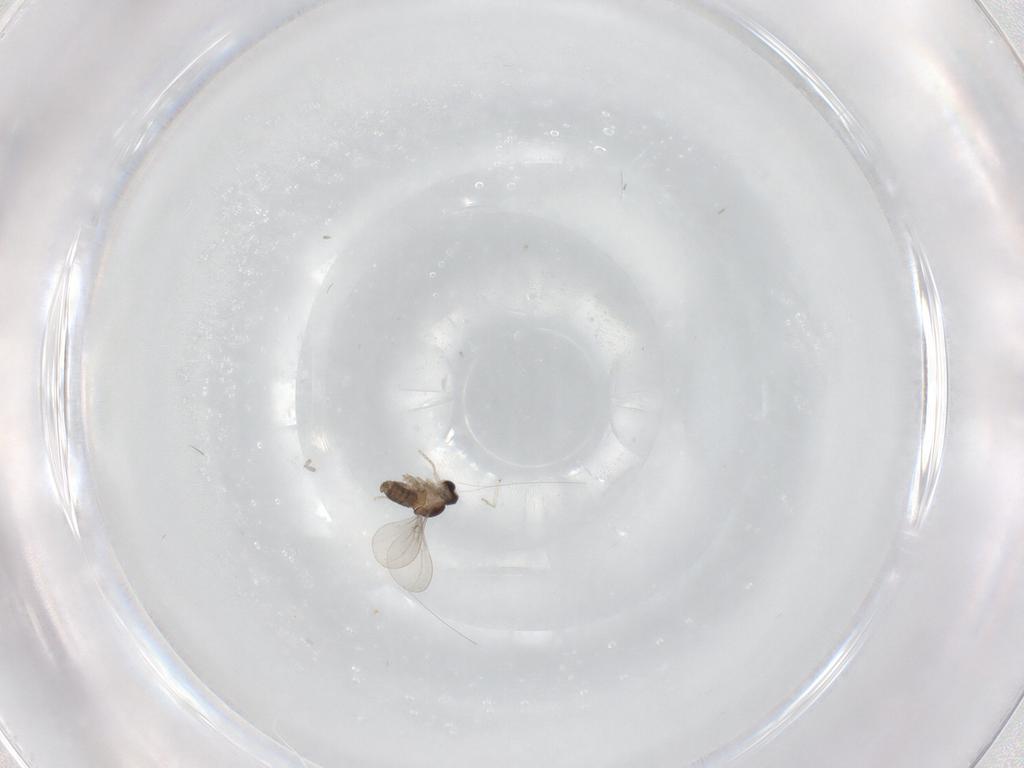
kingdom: Animalia
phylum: Arthropoda
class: Insecta
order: Diptera
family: Cecidomyiidae
